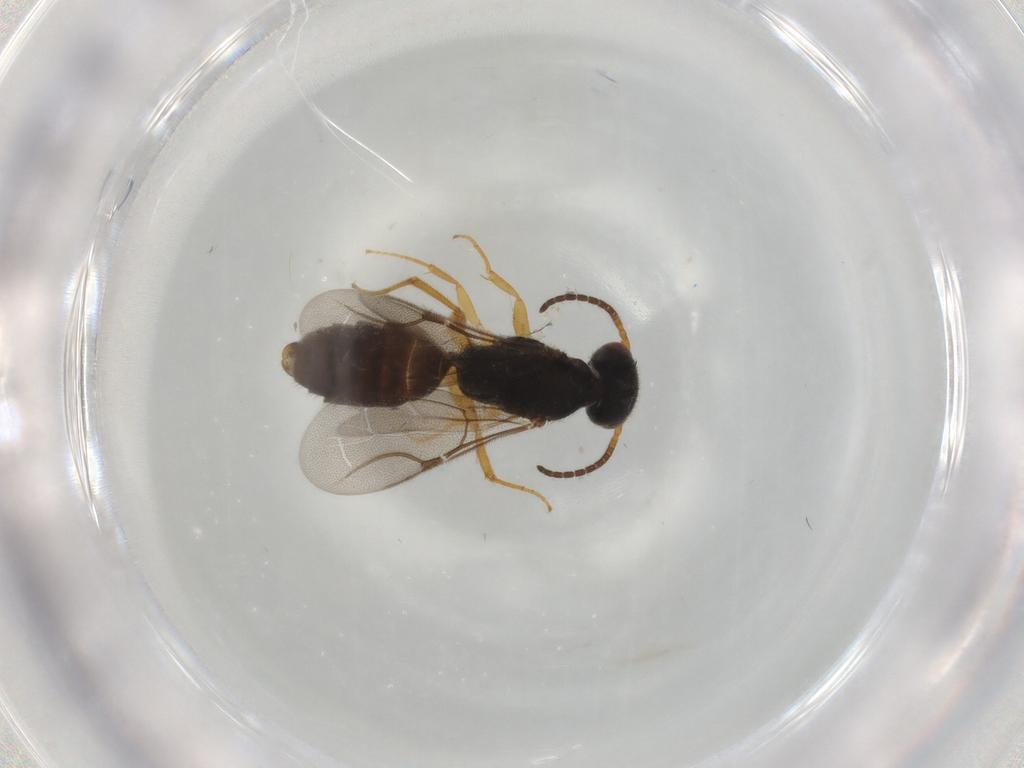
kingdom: Animalia
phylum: Arthropoda
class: Insecta
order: Hymenoptera
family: Bethylidae
